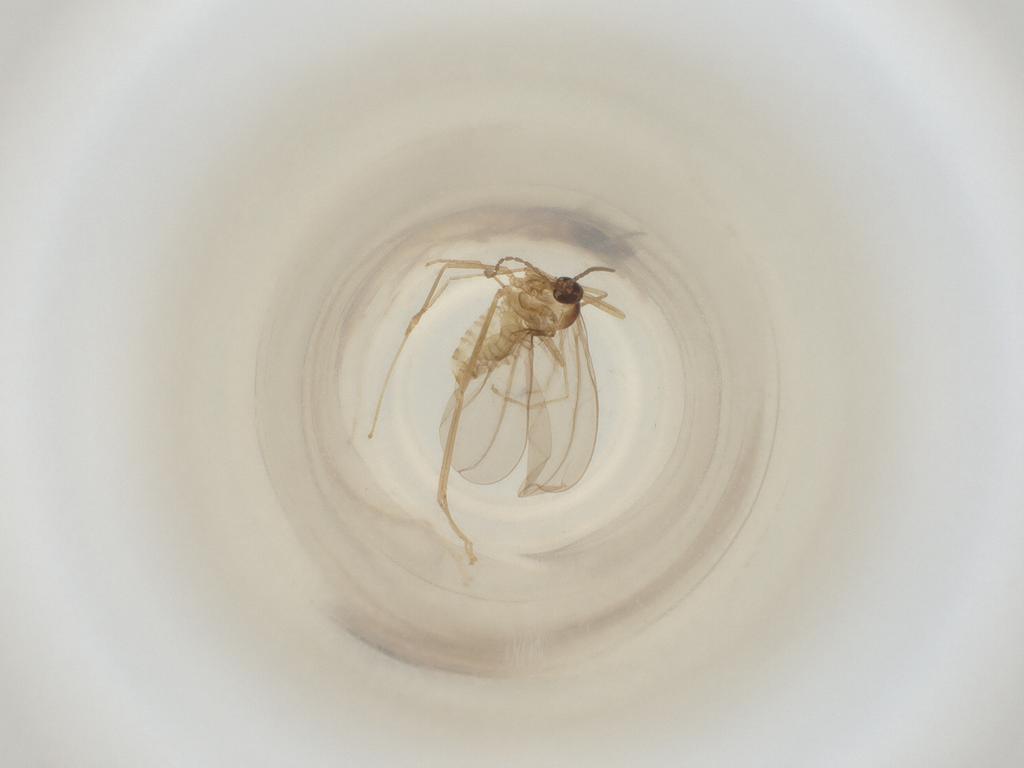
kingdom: Animalia
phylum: Arthropoda
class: Insecta
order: Diptera
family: Cecidomyiidae
